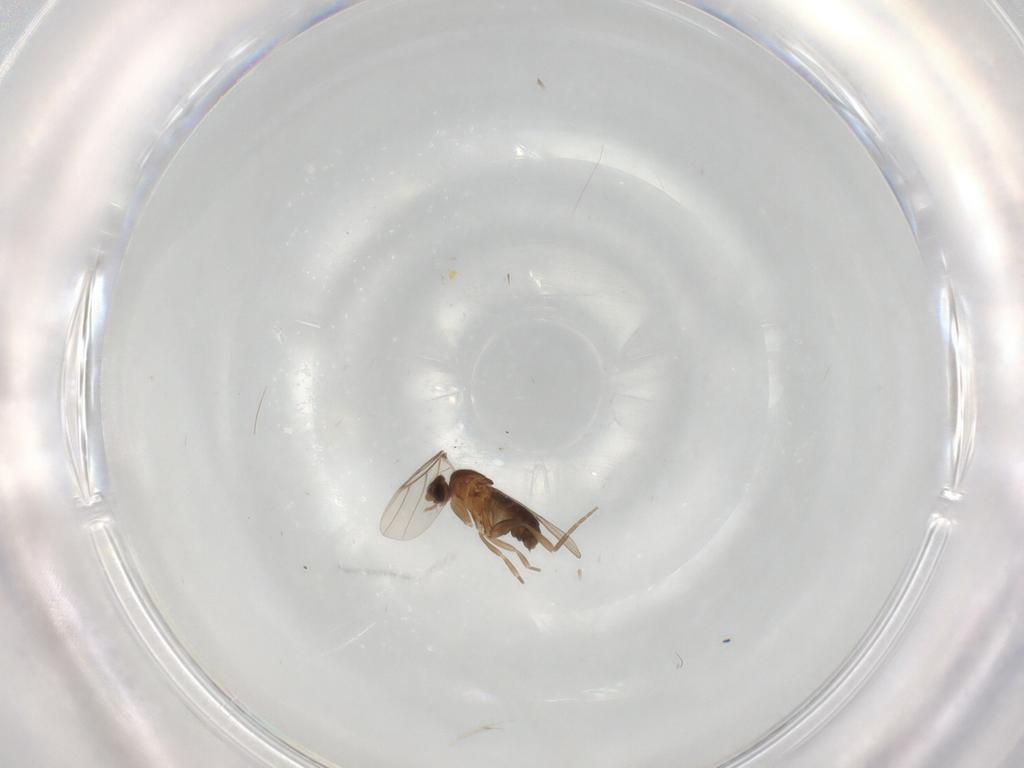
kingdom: Animalia
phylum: Arthropoda
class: Insecta
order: Diptera
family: Phoridae
